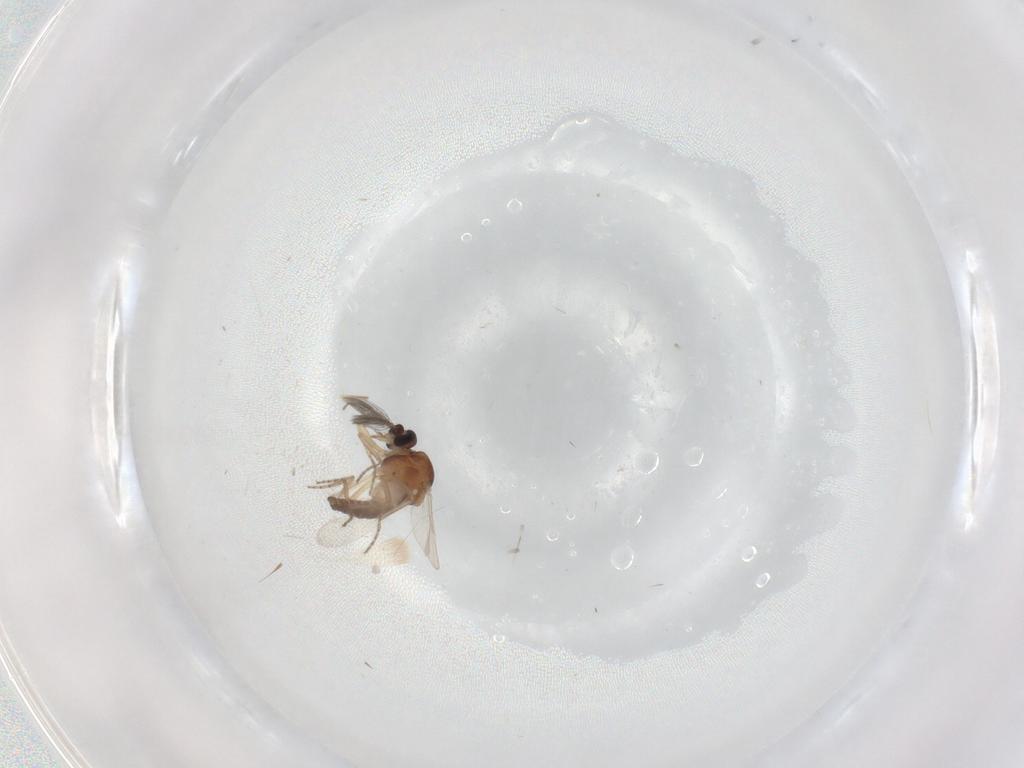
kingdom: Animalia
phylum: Arthropoda
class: Insecta
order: Diptera
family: Ceratopogonidae
